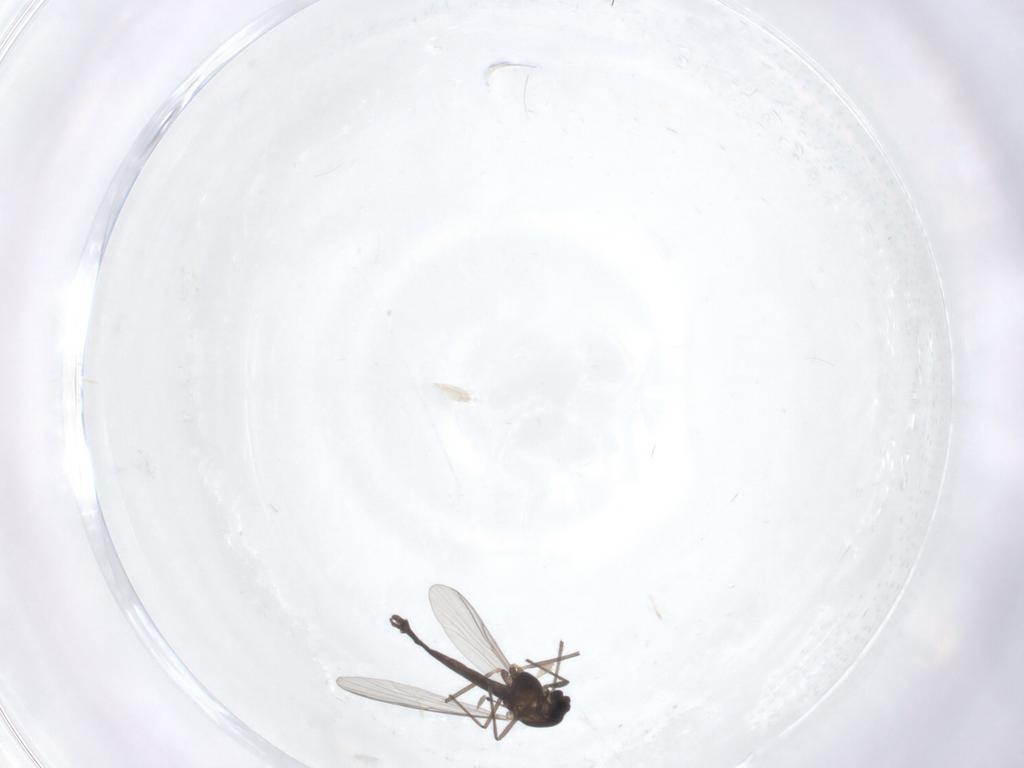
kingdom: Animalia
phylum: Arthropoda
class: Insecta
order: Diptera
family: Chironomidae
